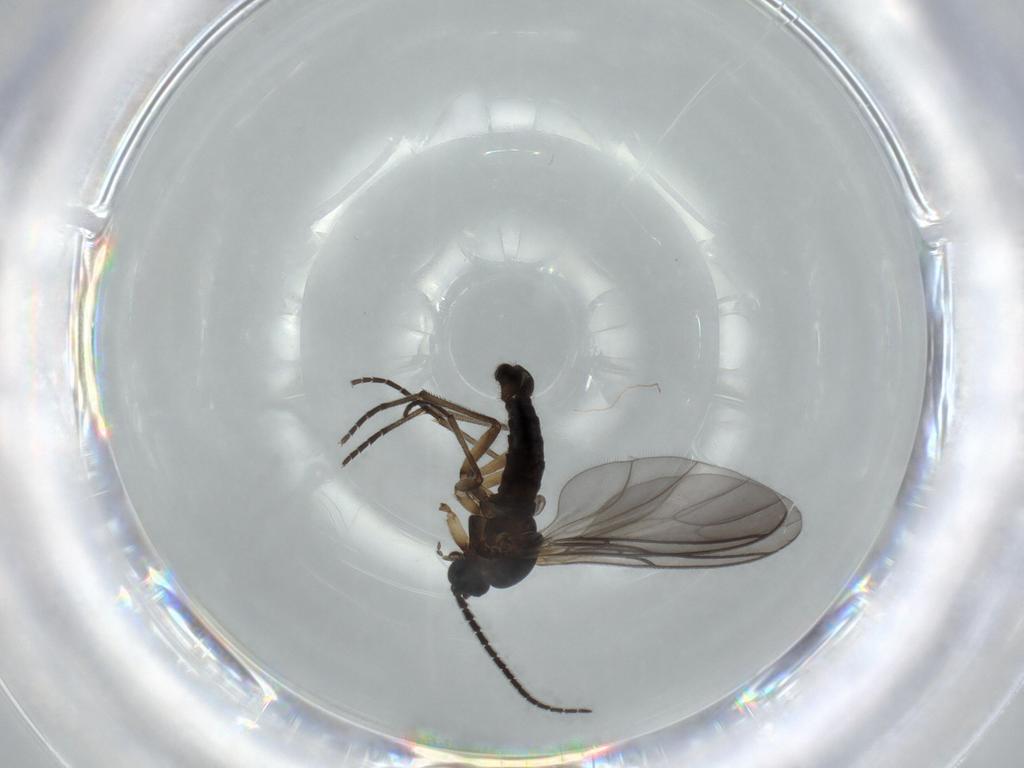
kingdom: Animalia
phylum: Arthropoda
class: Insecta
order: Diptera
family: Sciaridae
